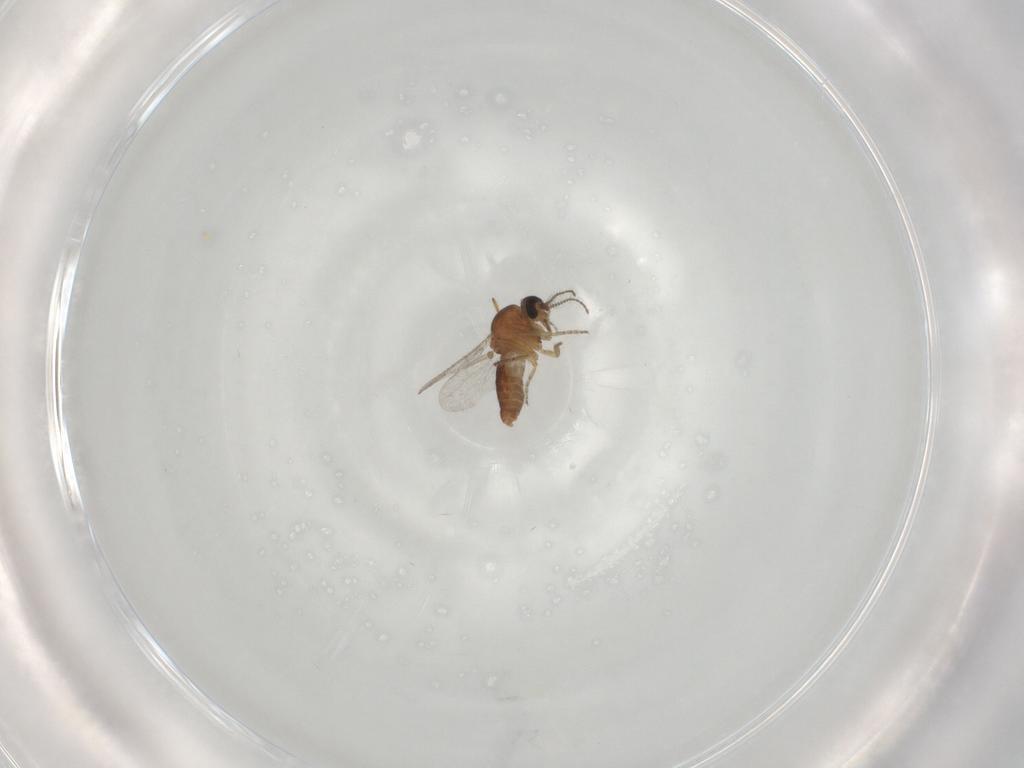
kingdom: Animalia
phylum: Arthropoda
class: Insecta
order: Diptera
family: Ceratopogonidae
